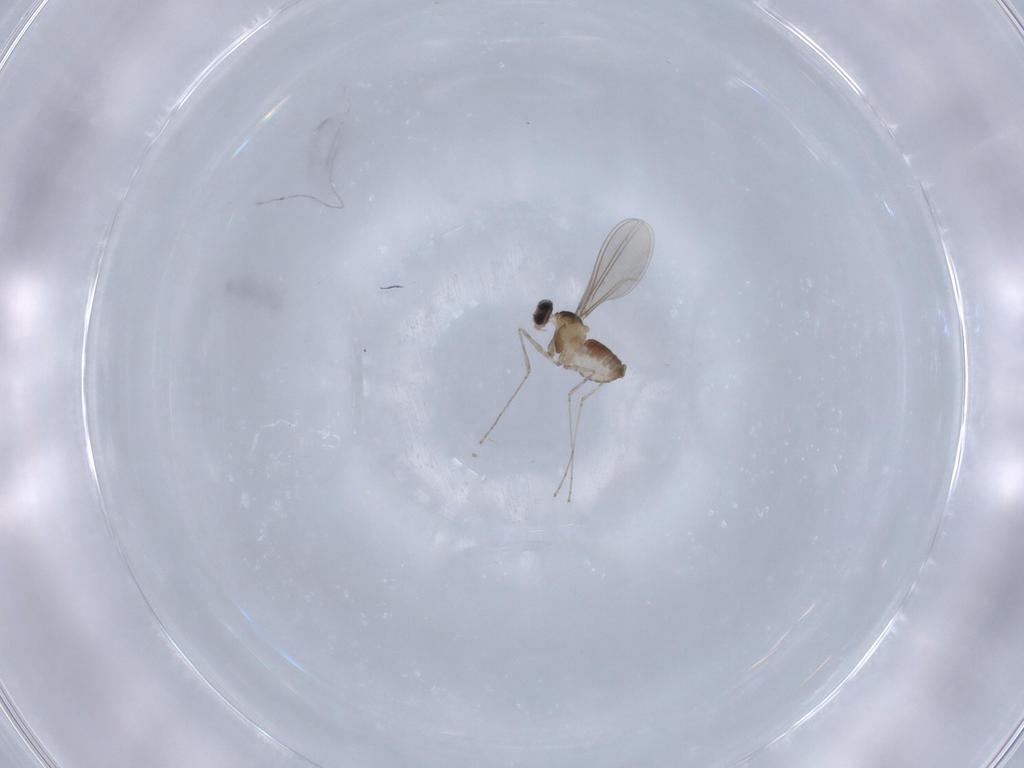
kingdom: Animalia
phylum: Arthropoda
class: Insecta
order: Diptera
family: Cecidomyiidae
